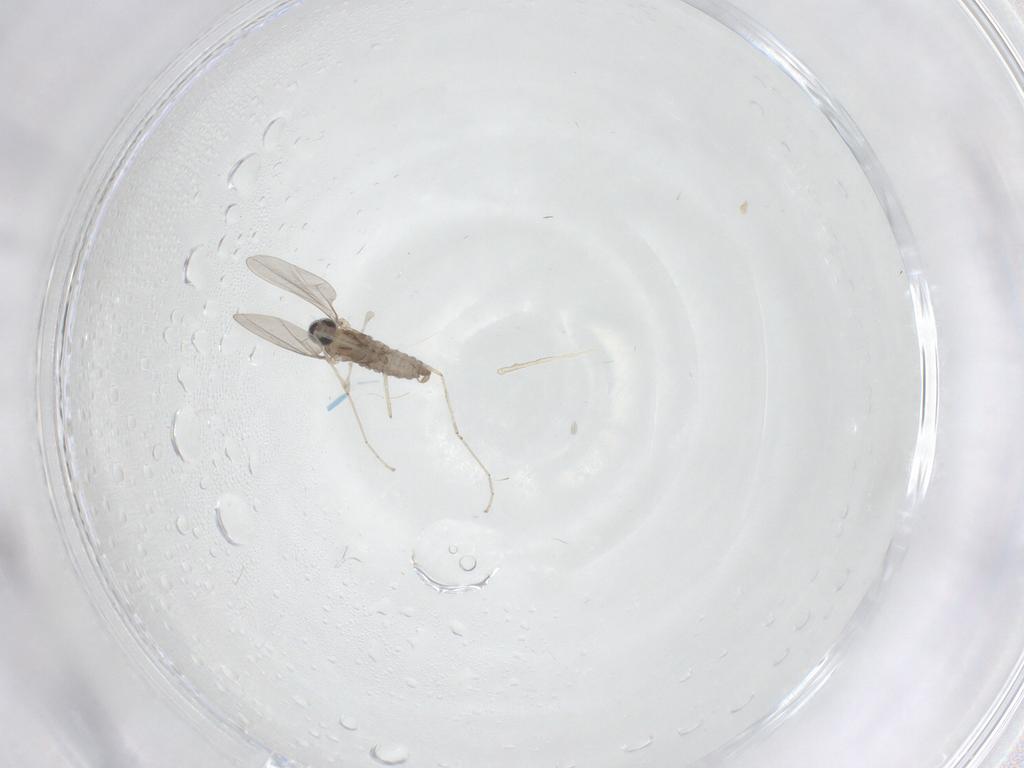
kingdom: Animalia
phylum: Arthropoda
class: Insecta
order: Diptera
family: Cecidomyiidae
